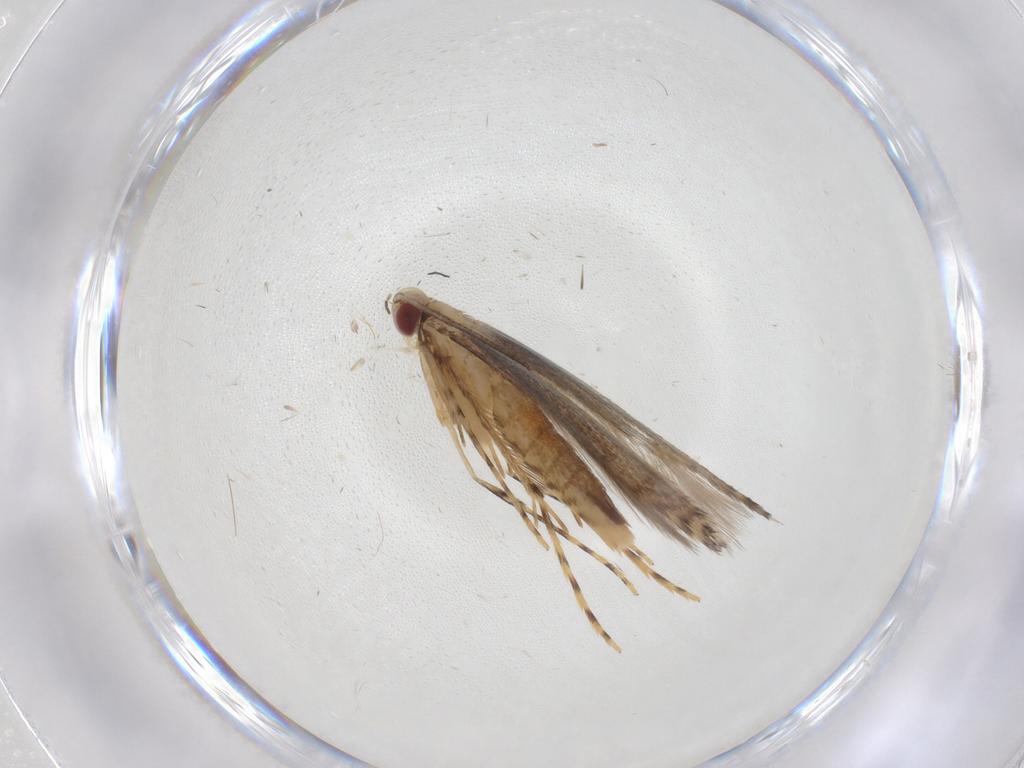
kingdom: Animalia
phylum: Arthropoda
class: Insecta
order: Lepidoptera
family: Gracillariidae
